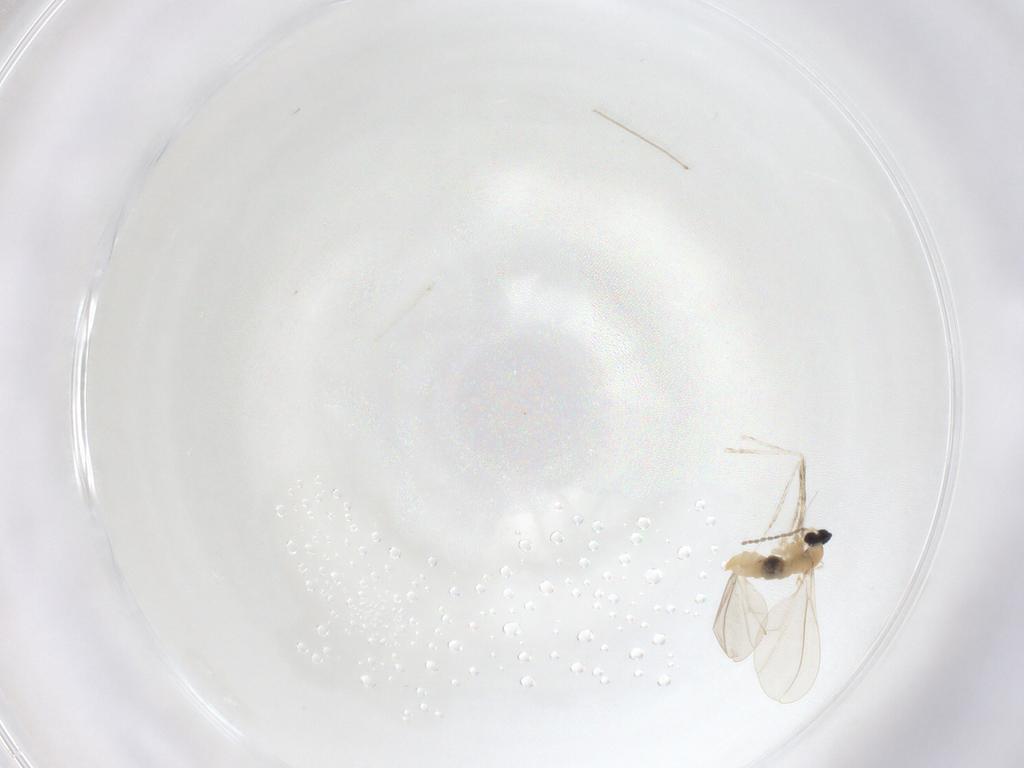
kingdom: Animalia
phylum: Arthropoda
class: Insecta
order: Diptera
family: Cecidomyiidae
